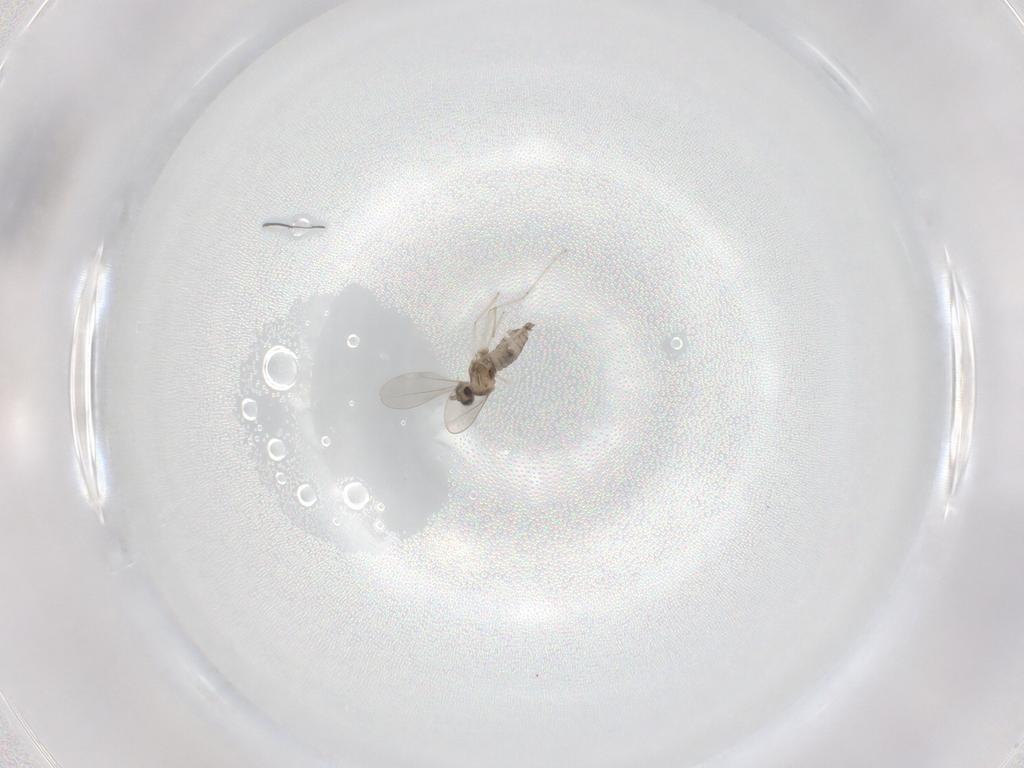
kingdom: Animalia
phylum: Arthropoda
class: Insecta
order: Diptera
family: Cecidomyiidae
